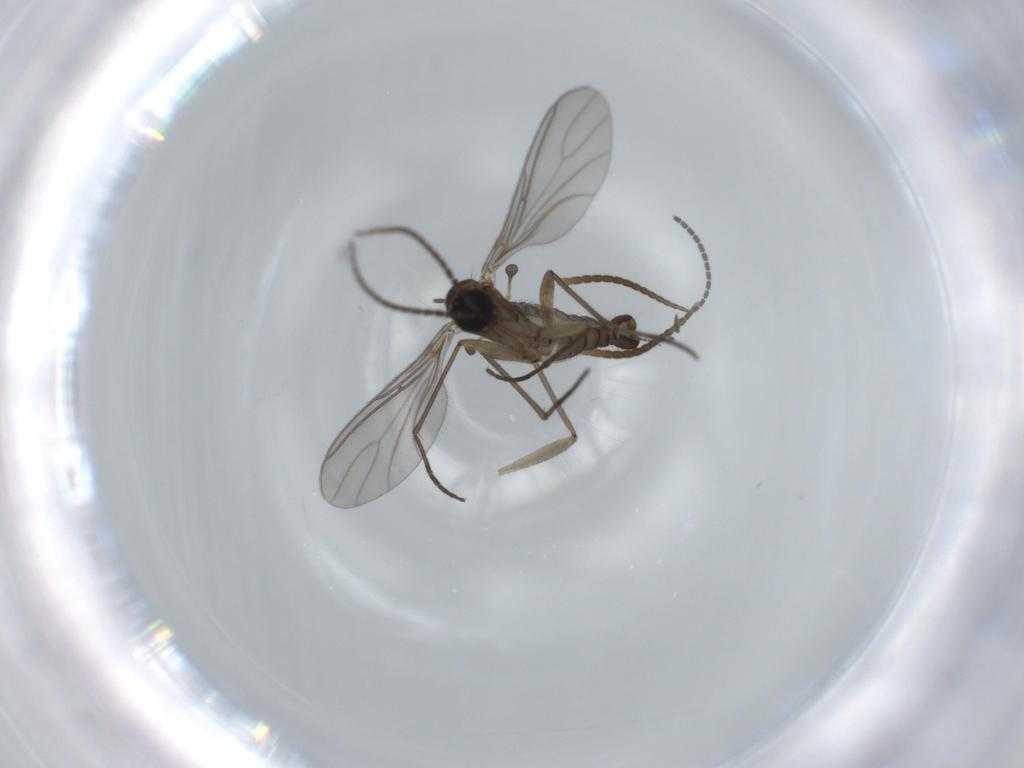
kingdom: Animalia
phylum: Arthropoda
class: Insecta
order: Diptera
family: Sciaridae
